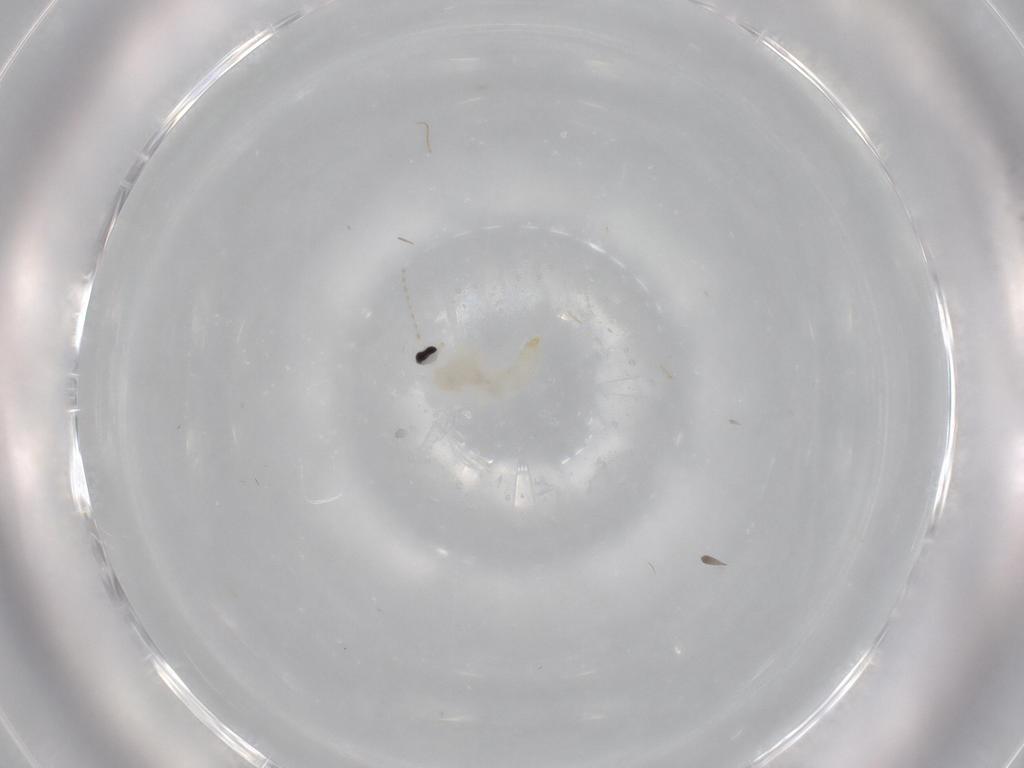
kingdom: Animalia
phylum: Arthropoda
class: Insecta
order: Diptera
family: Cecidomyiidae
